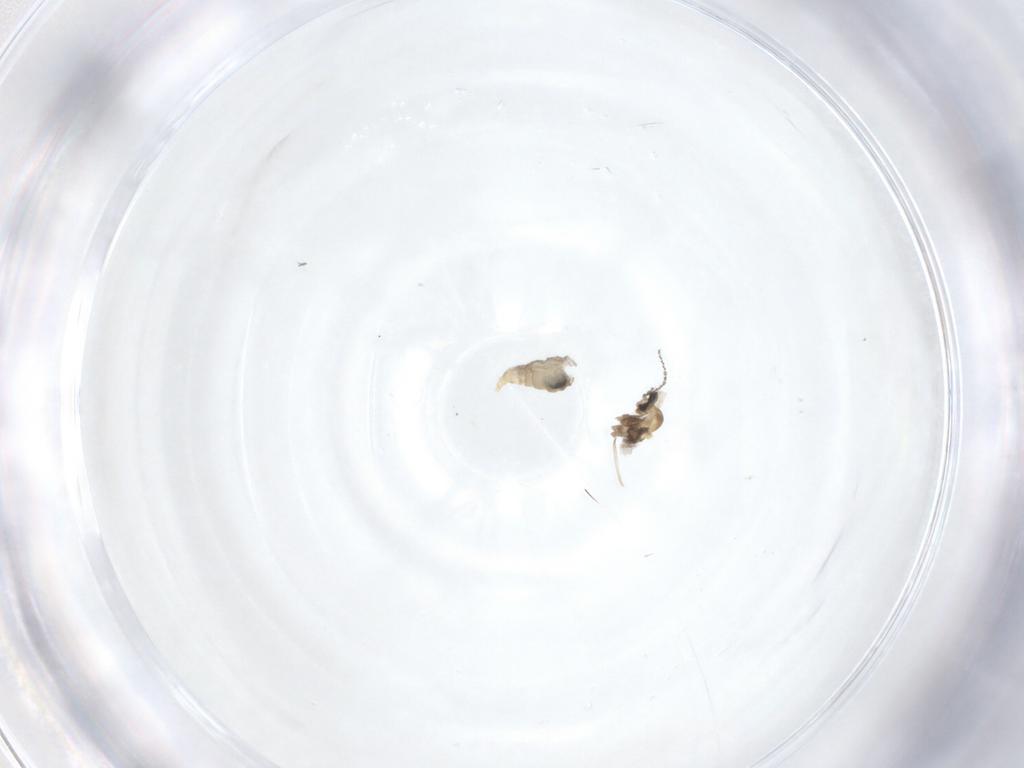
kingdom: Animalia
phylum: Arthropoda
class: Insecta
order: Diptera
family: Cecidomyiidae
